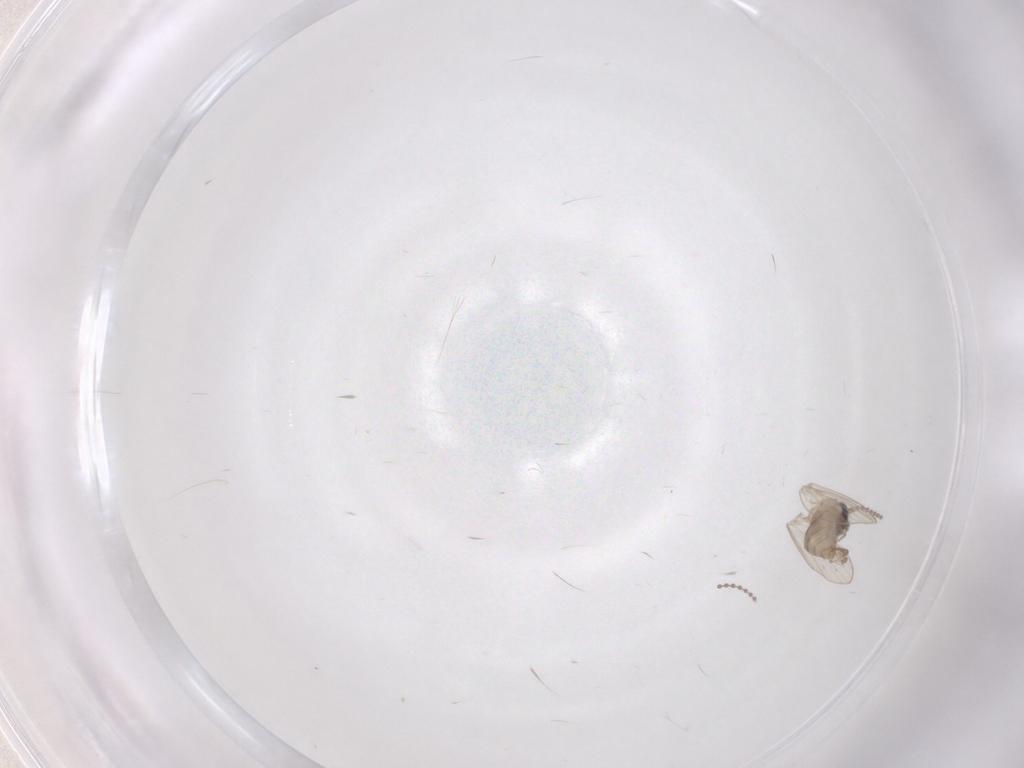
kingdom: Animalia
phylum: Arthropoda
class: Insecta
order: Diptera
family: Psychodidae
